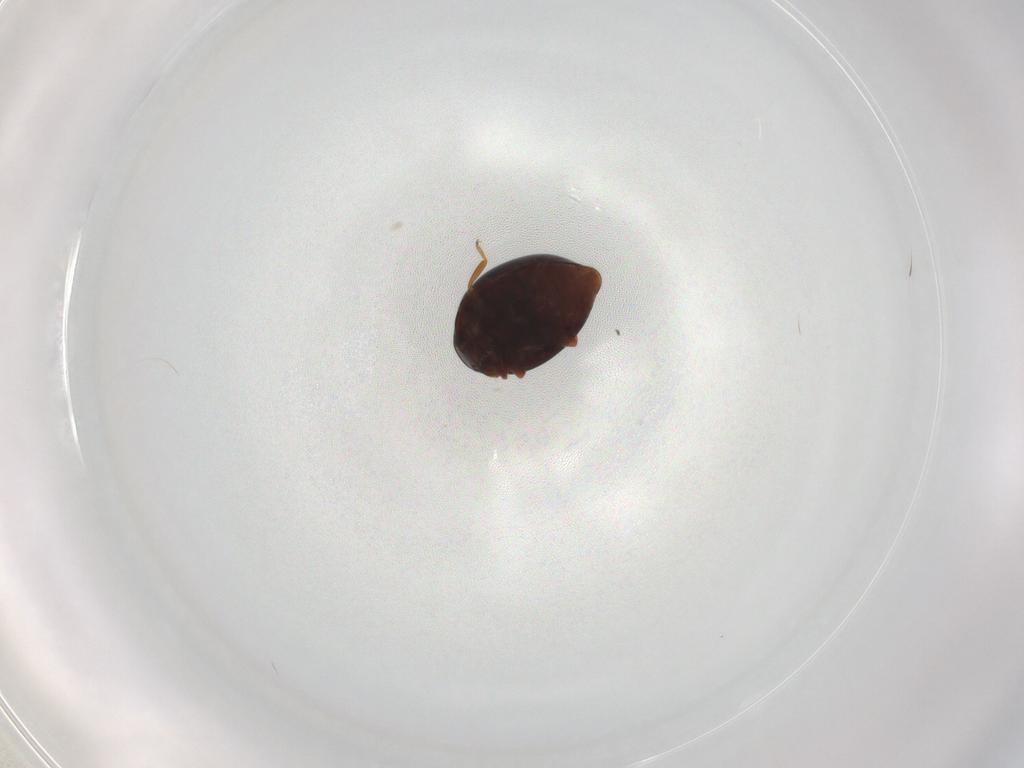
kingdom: Animalia
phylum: Arthropoda
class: Insecta
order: Coleoptera
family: Coccinellidae
